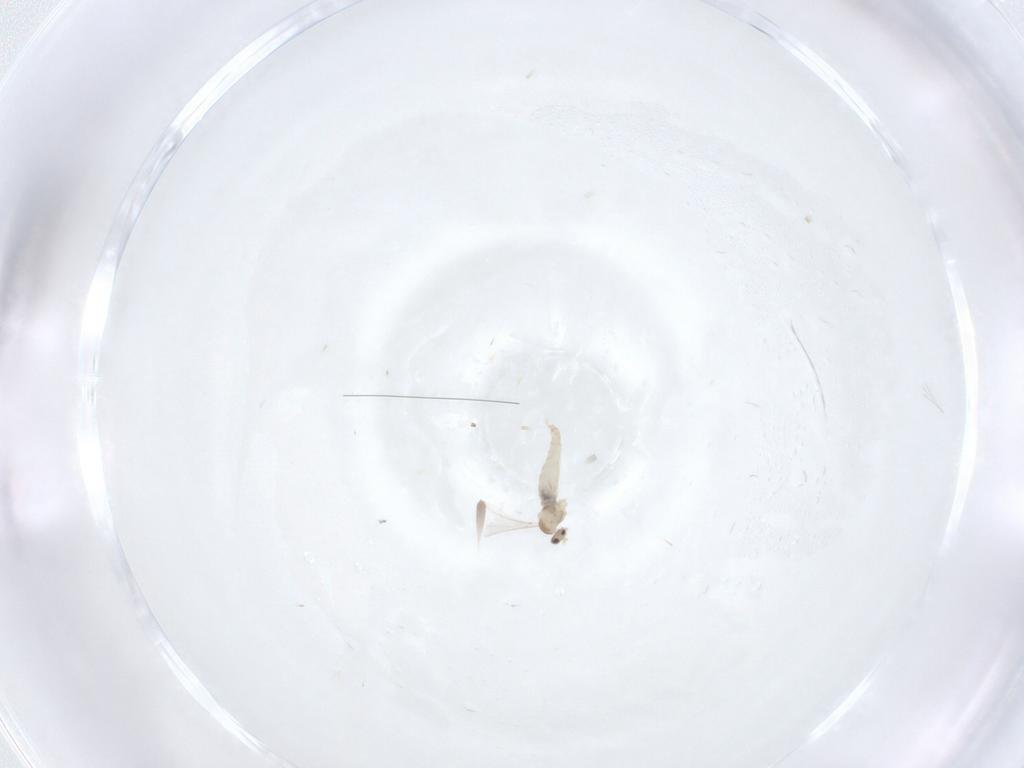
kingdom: Animalia
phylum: Arthropoda
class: Insecta
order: Diptera
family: Cecidomyiidae
